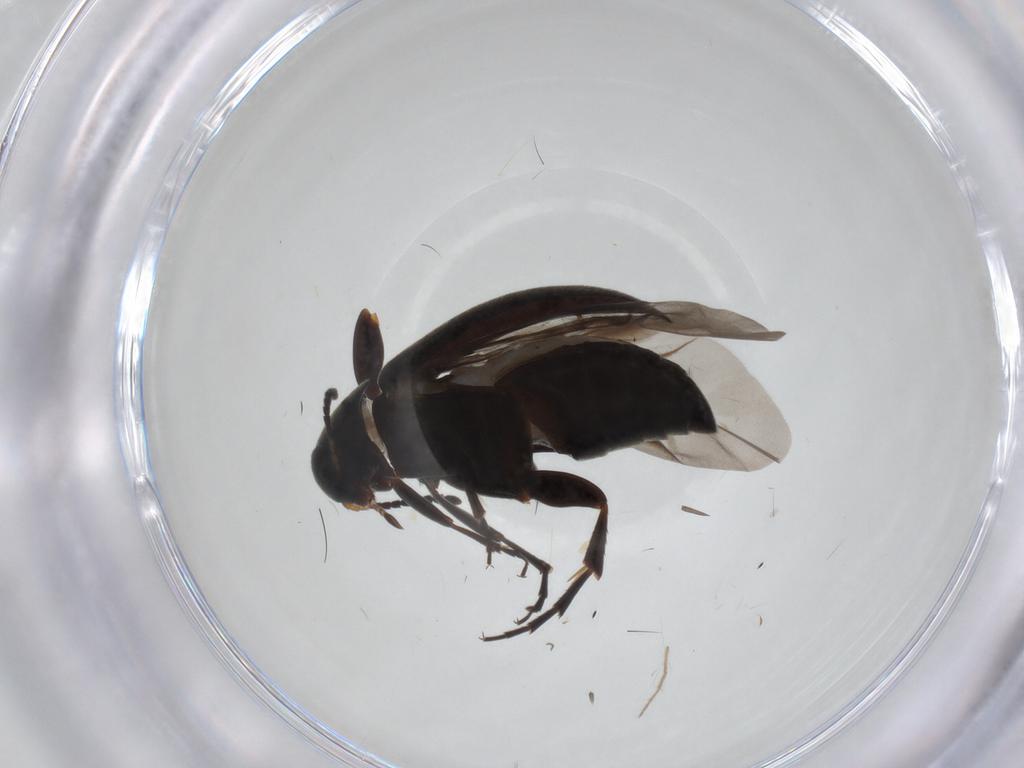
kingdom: Animalia
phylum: Arthropoda
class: Insecta
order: Coleoptera
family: Scraptiidae
